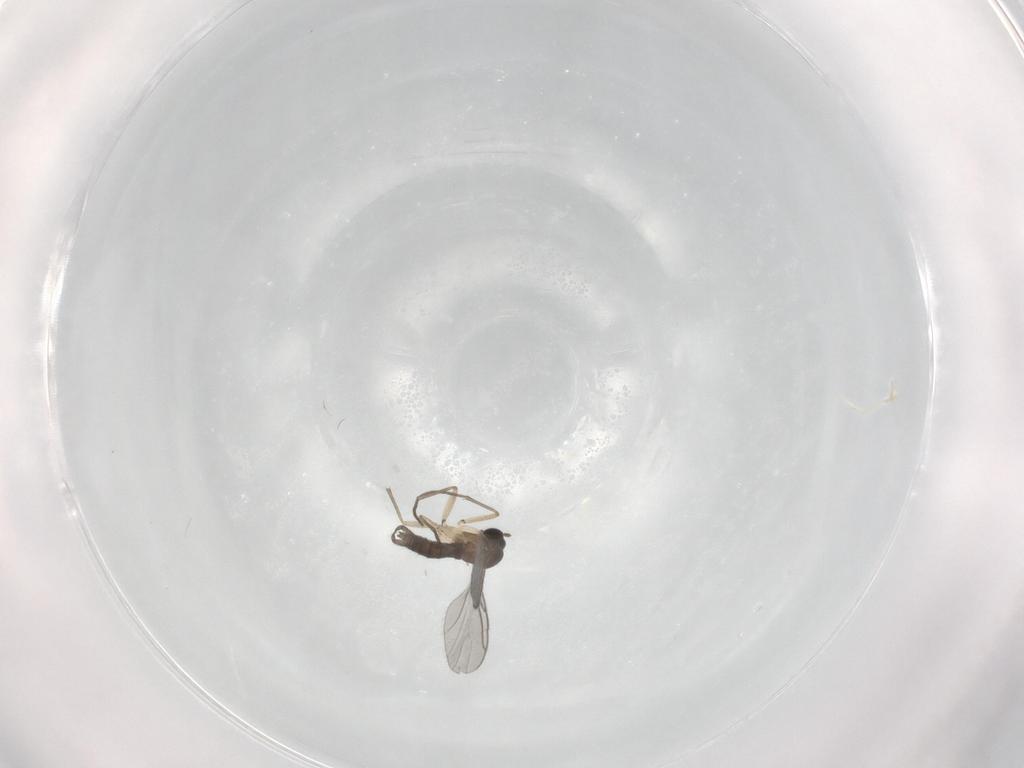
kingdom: Animalia
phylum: Arthropoda
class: Insecta
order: Diptera
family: Sciaridae
